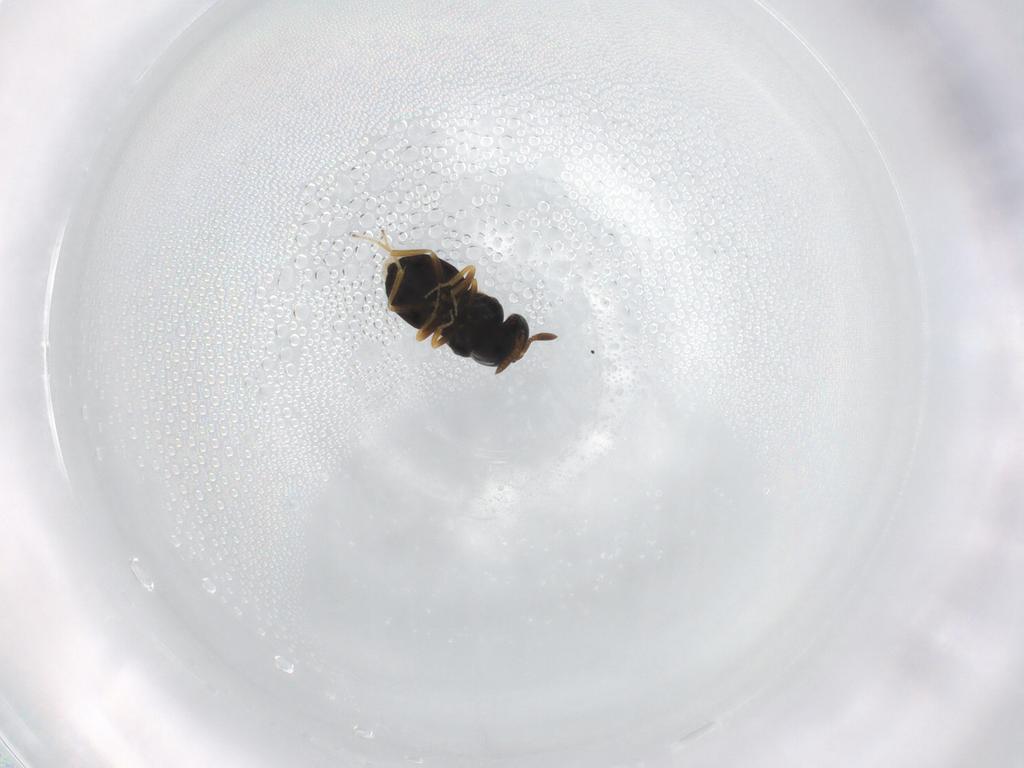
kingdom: Animalia
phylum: Arthropoda
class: Insecta
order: Hymenoptera
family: Scelionidae
